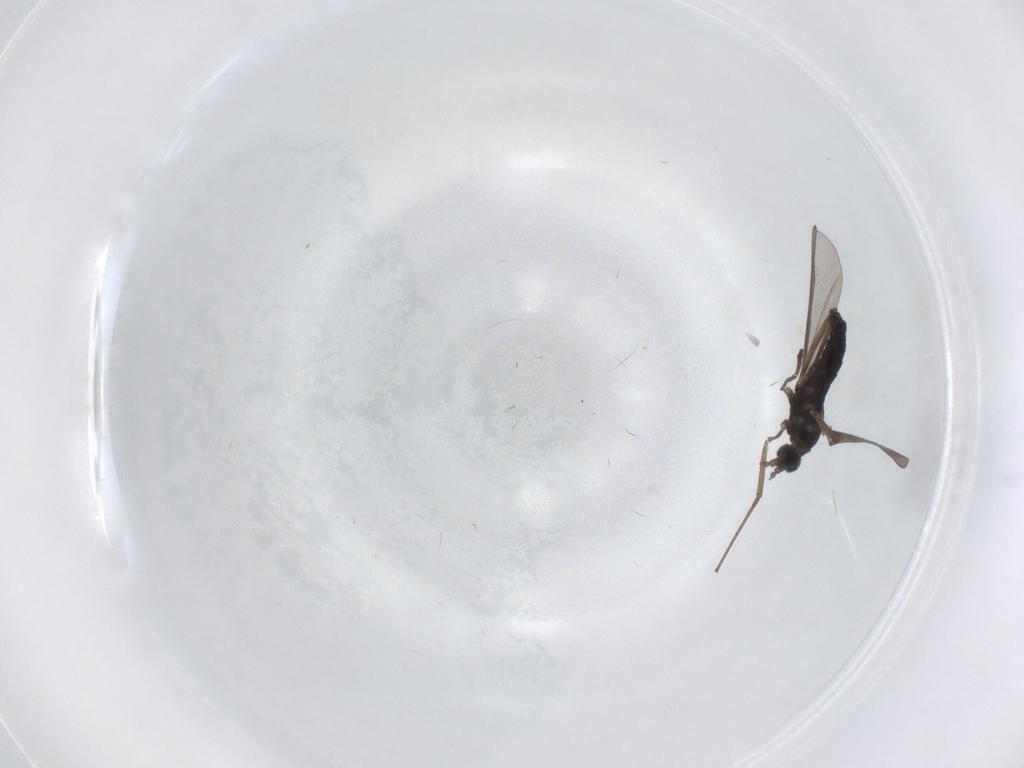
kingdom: Animalia
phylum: Arthropoda
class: Insecta
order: Diptera
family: Cecidomyiidae
